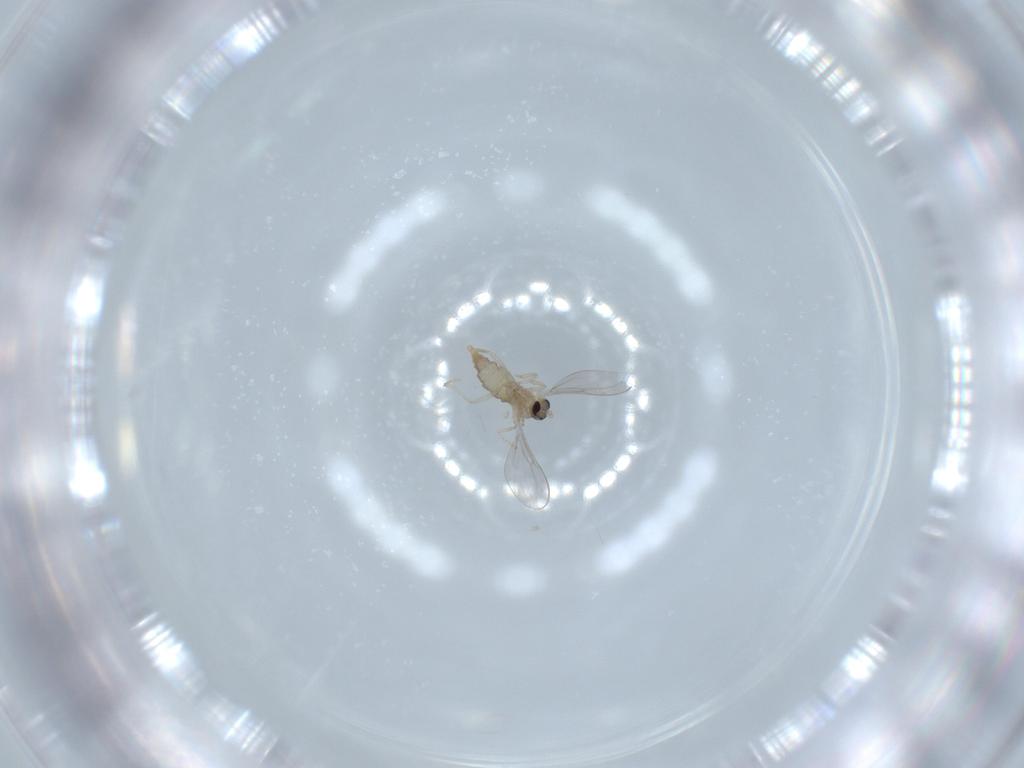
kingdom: Animalia
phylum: Arthropoda
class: Insecta
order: Diptera
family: Cecidomyiidae
